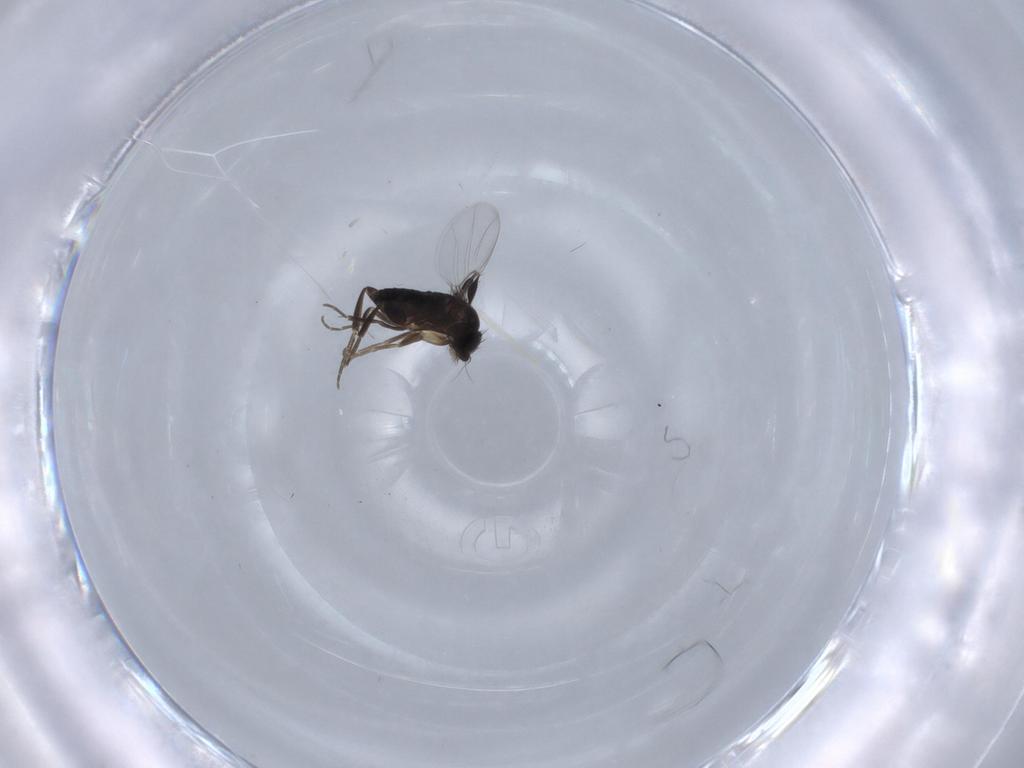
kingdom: Animalia
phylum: Arthropoda
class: Insecta
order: Diptera
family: Phoridae
